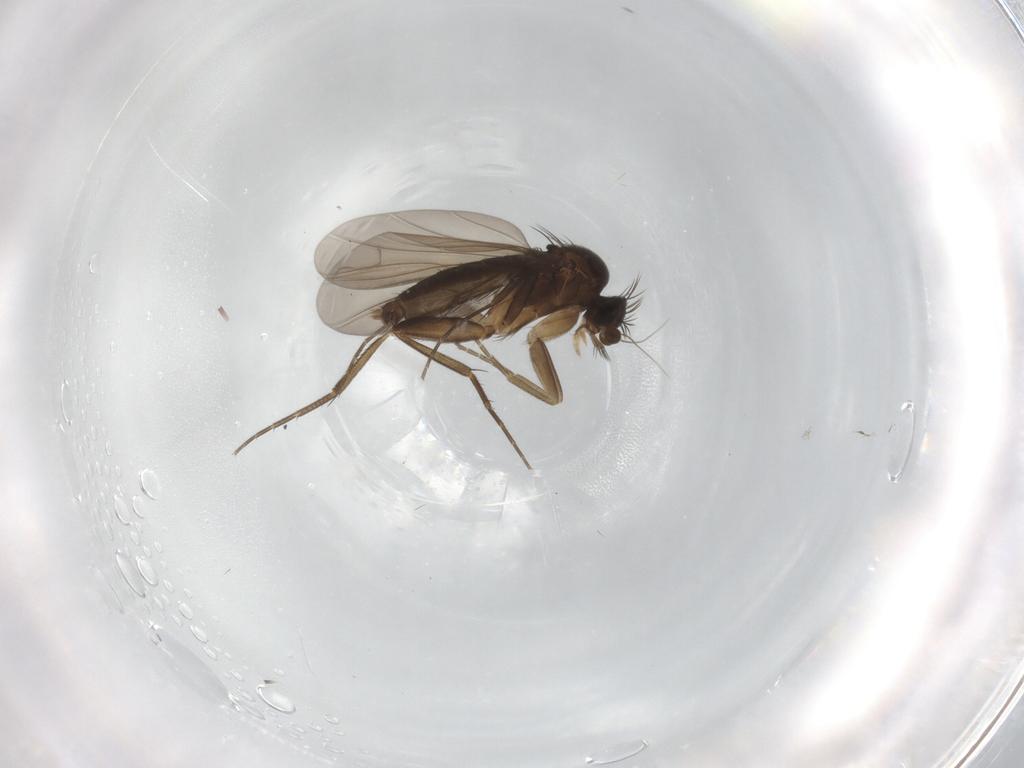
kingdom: Animalia
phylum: Arthropoda
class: Insecta
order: Diptera
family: Phoridae
